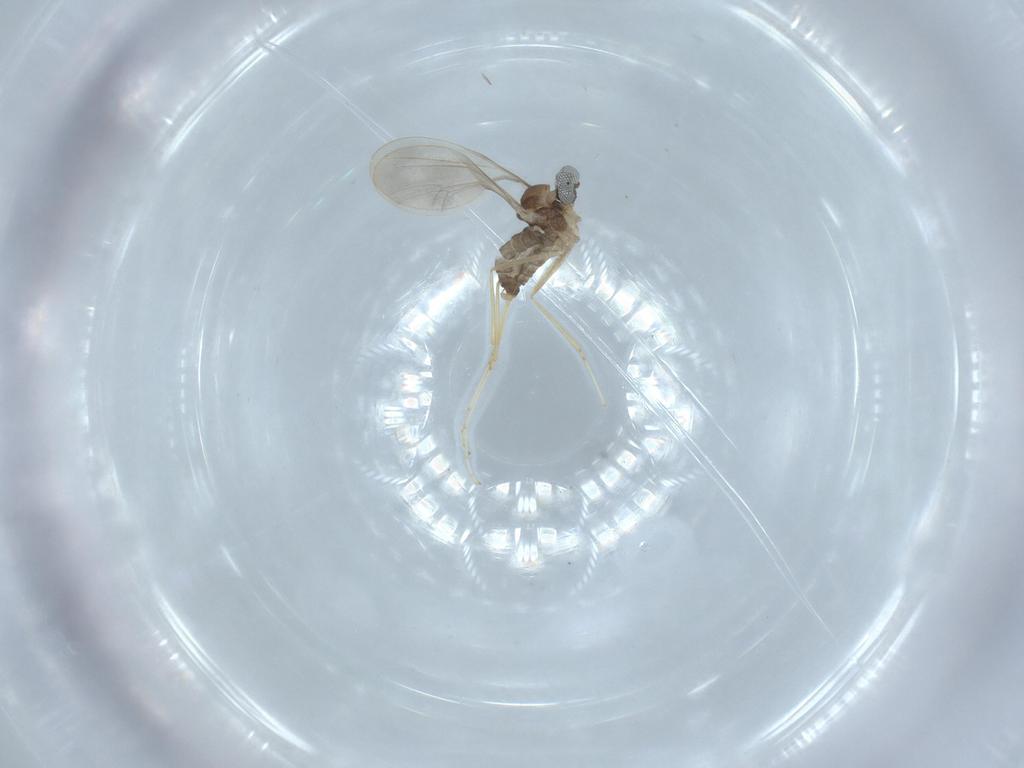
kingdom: Animalia
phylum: Arthropoda
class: Insecta
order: Diptera
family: Cecidomyiidae
